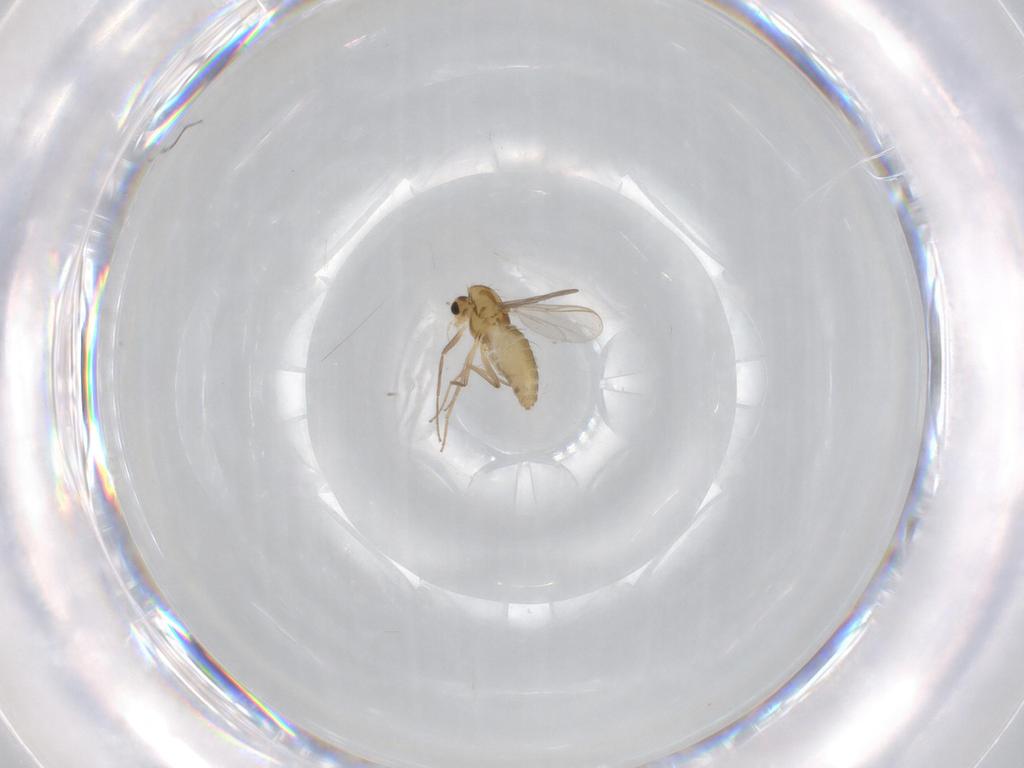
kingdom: Animalia
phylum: Arthropoda
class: Insecta
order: Diptera
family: Chironomidae
